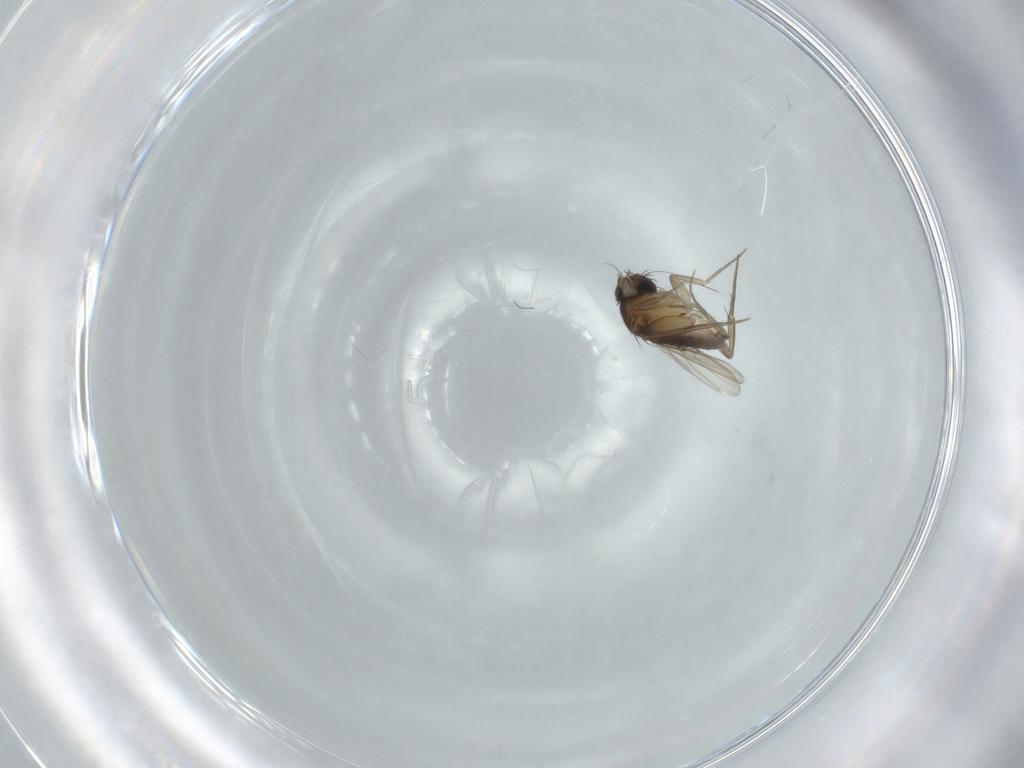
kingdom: Animalia
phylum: Arthropoda
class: Insecta
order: Diptera
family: Phoridae
